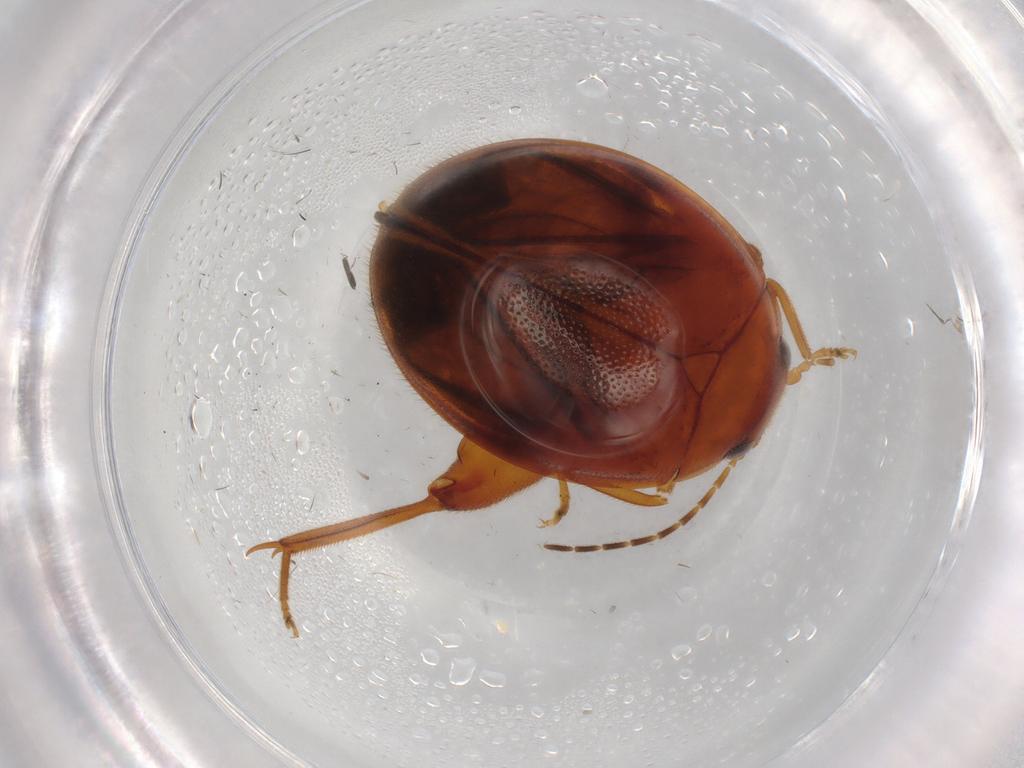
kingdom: Animalia
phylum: Arthropoda
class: Insecta
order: Coleoptera
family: Scirtidae
